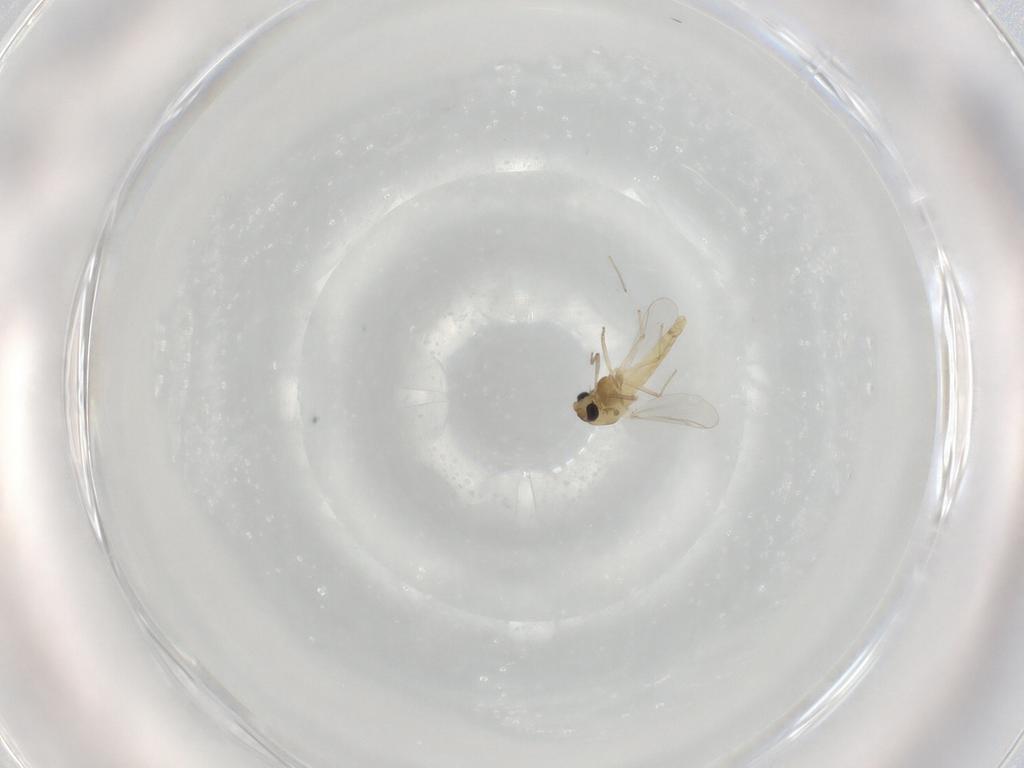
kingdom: Animalia
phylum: Arthropoda
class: Insecta
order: Diptera
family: Chironomidae
